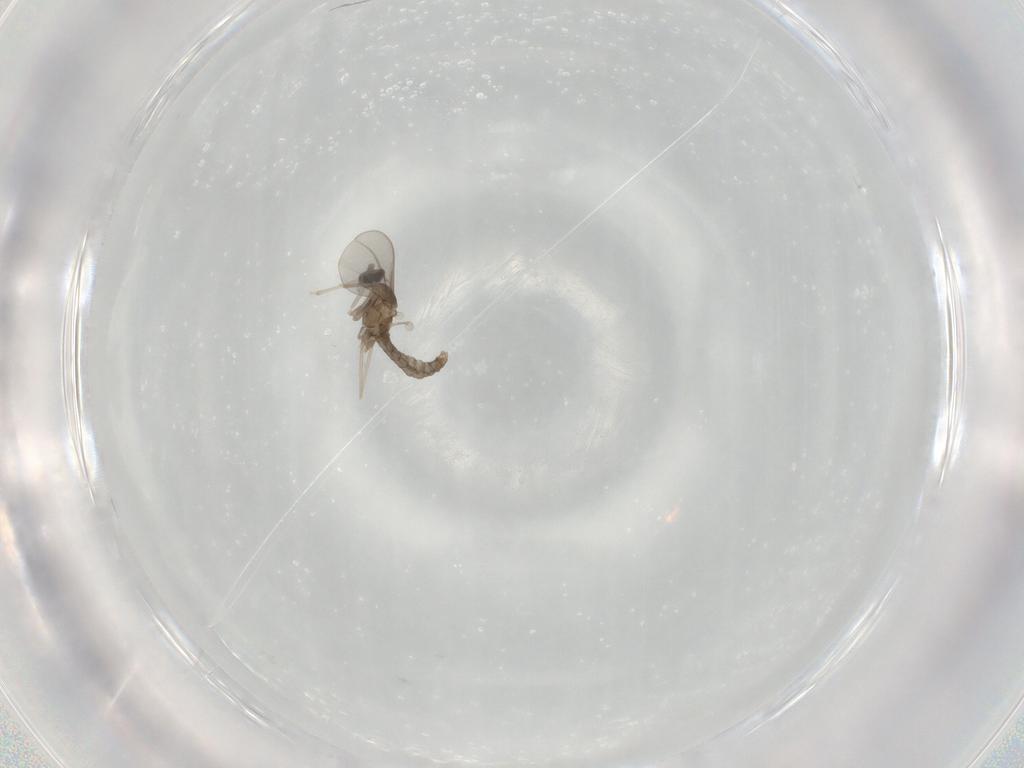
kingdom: Animalia
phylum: Arthropoda
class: Insecta
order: Diptera
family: Cecidomyiidae
